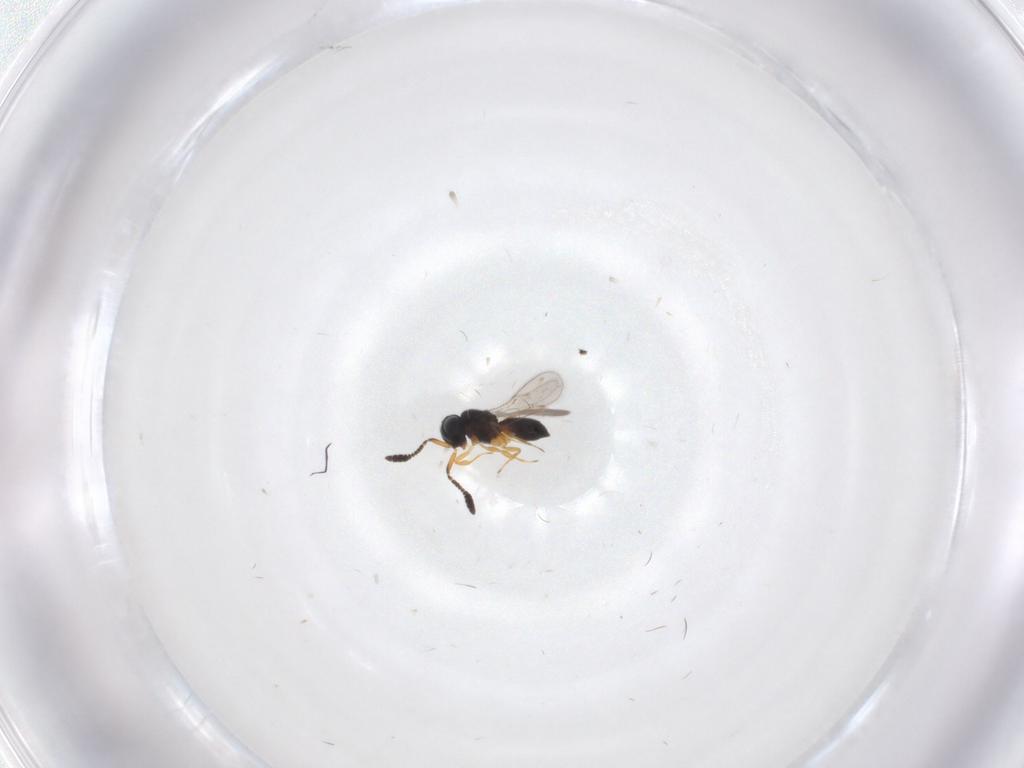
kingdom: Animalia
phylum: Arthropoda
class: Insecta
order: Hymenoptera
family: Scelionidae
